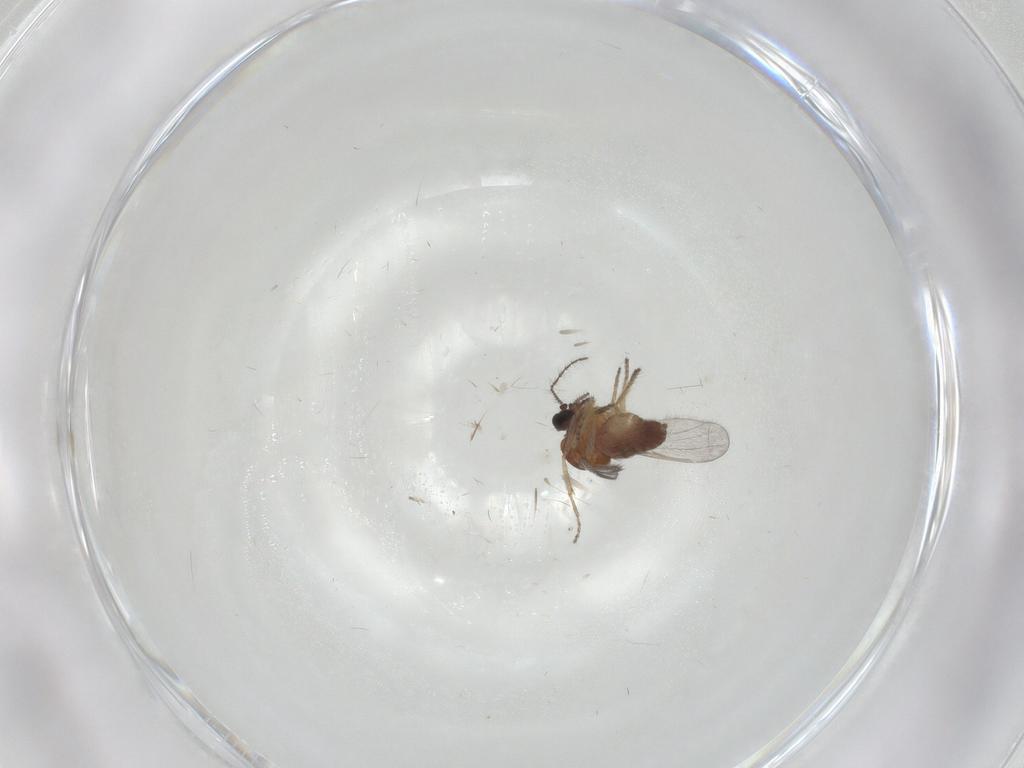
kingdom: Animalia
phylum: Arthropoda
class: Insecta
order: Diptera
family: Ceratopogonidae
